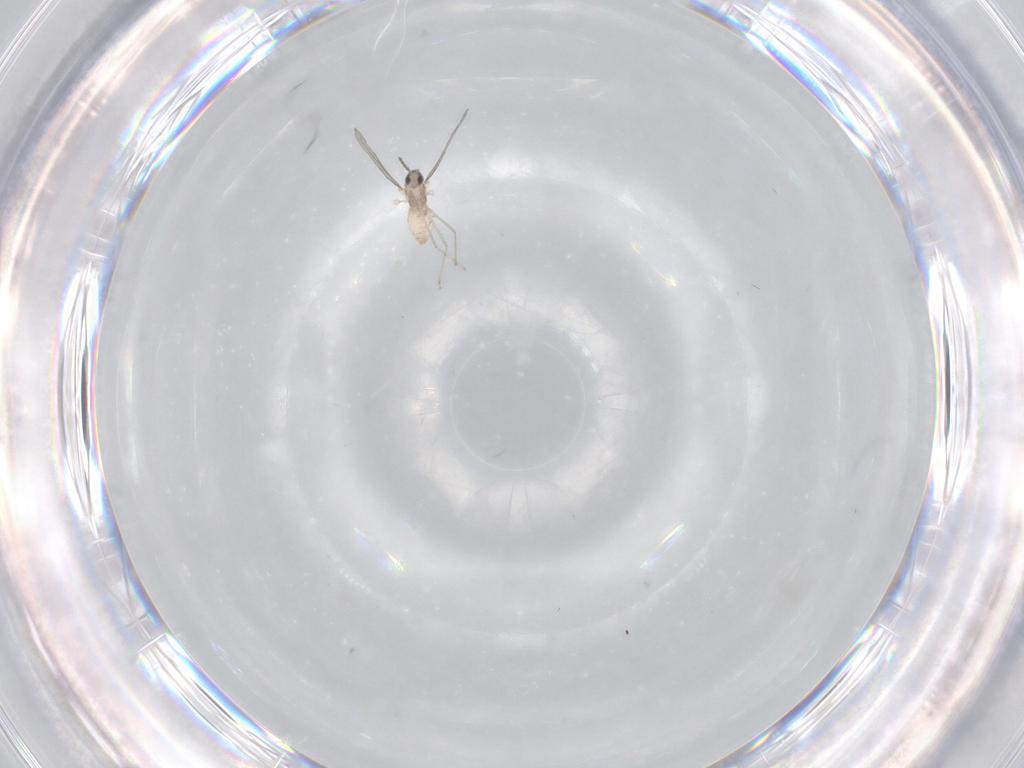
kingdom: Animalia
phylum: Arthropoda
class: Insecta
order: Diptera
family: Cecidomyiidae
